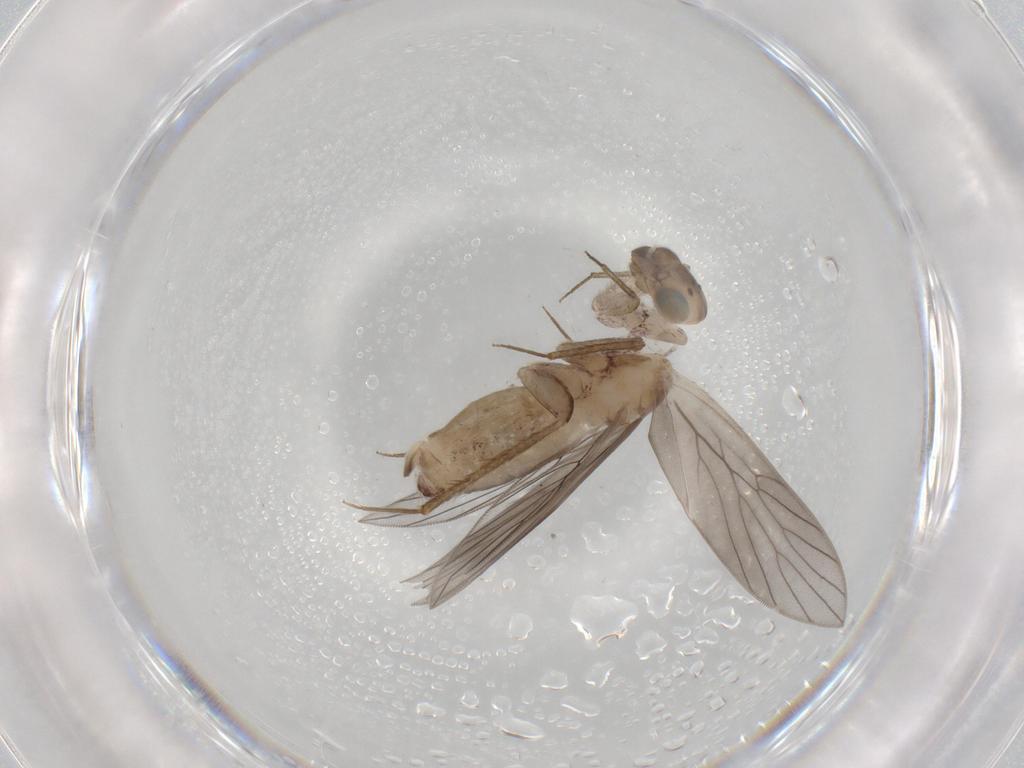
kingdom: Animalia
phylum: Arthropoda
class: Insecta
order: Psocodea
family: Lepidopsocidae
